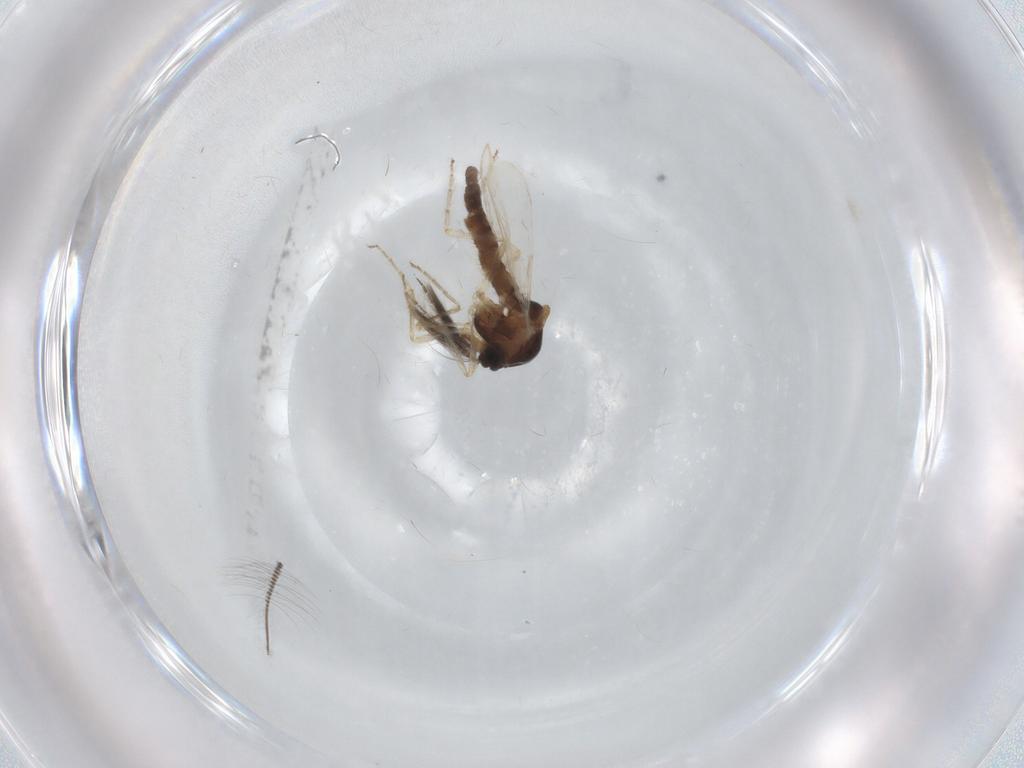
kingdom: Animalia
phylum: Arthropoda
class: Insecta
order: Diptera
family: Ceratopogonidae
